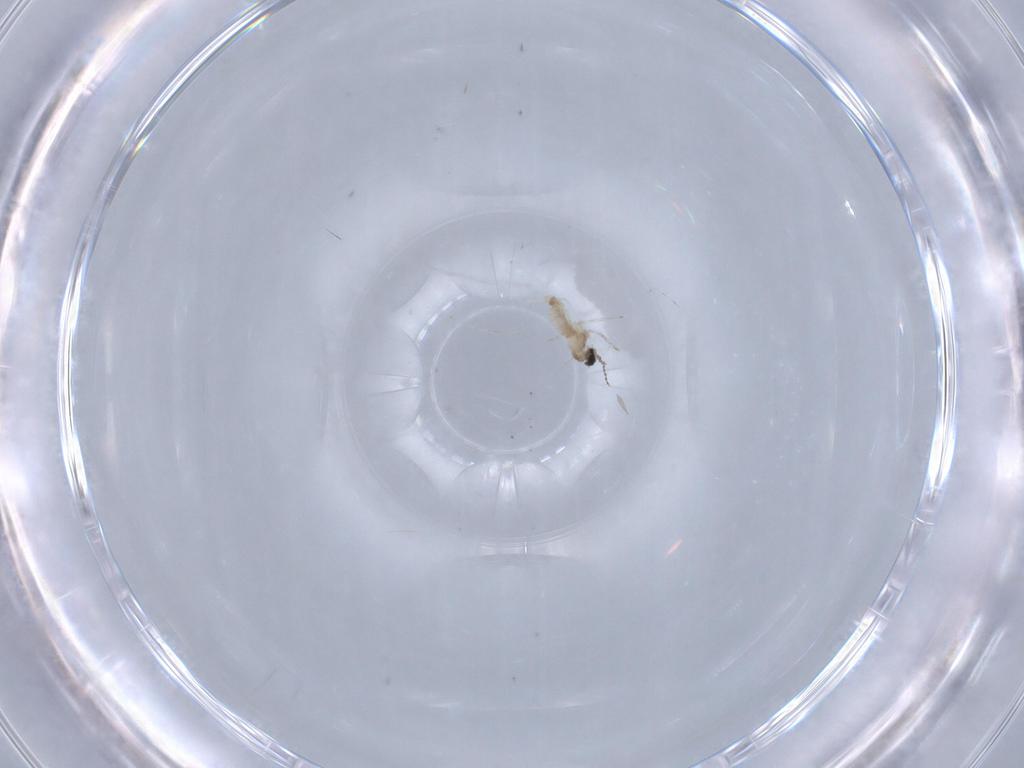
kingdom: Animalia
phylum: Arthropoda
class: Insecta
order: Diptera
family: Cecidomyiidae
